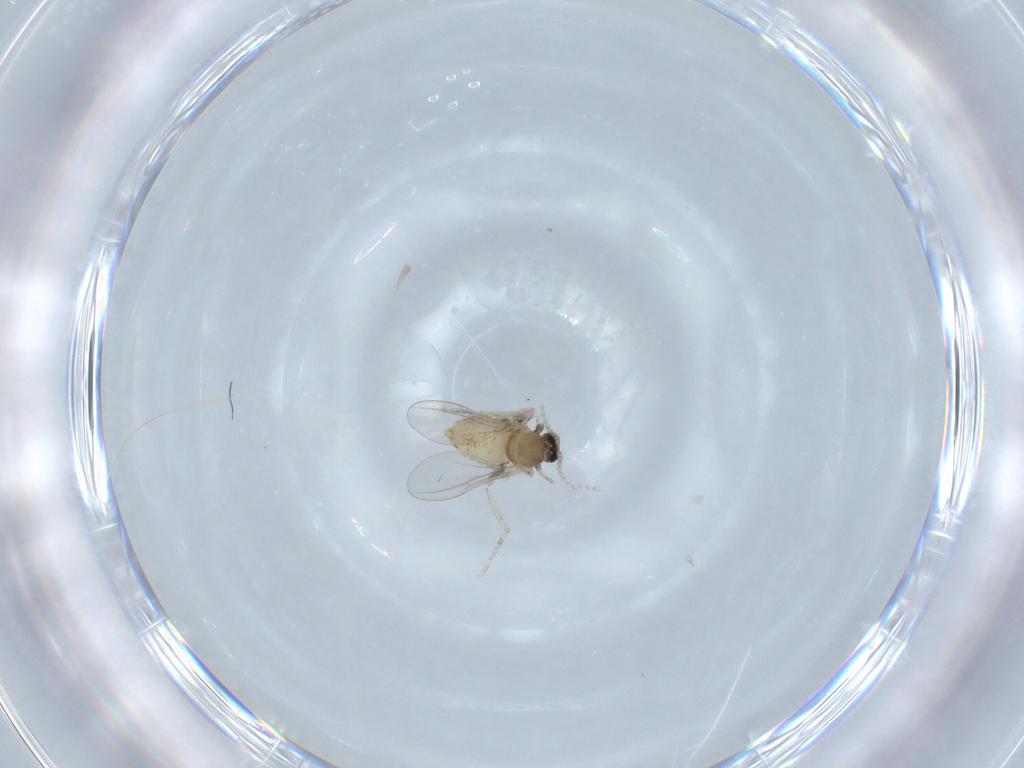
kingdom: Animalia
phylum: Arthropoda
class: Insecta
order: Diptera
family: Cecidomyiidae
